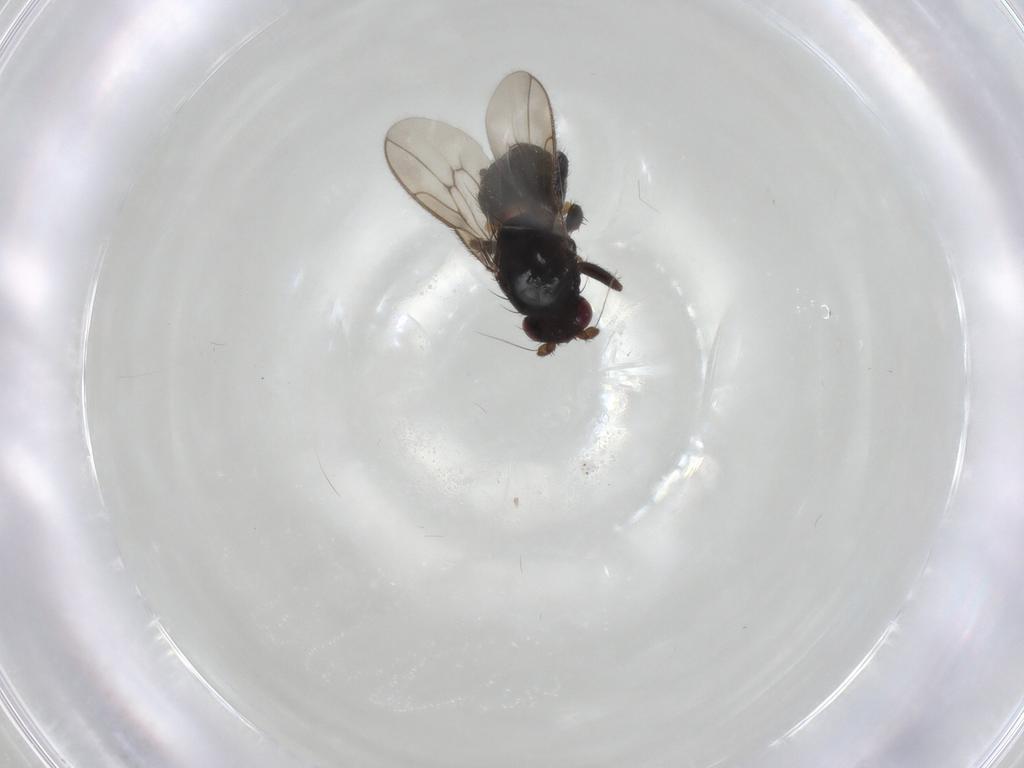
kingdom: Animalia
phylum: Arthropoda
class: Insecta
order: Diptera
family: Sphaeroceridae
